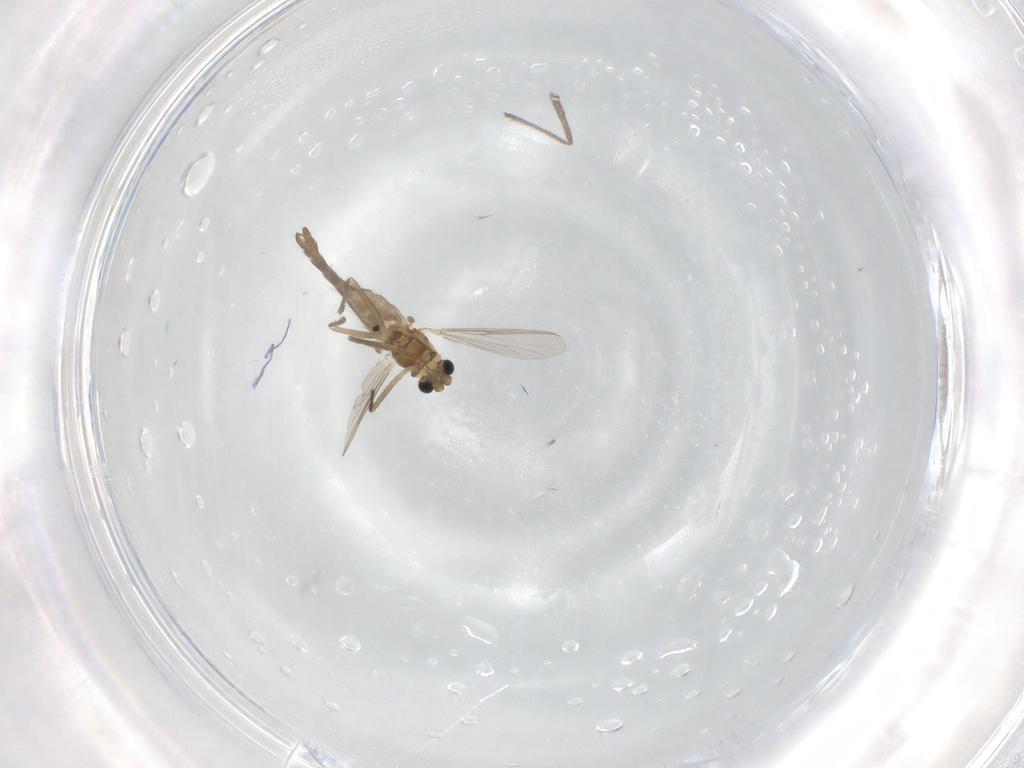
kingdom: Animalia
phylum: Arthropoda
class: Insecta
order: Diptera
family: Chironomidae
